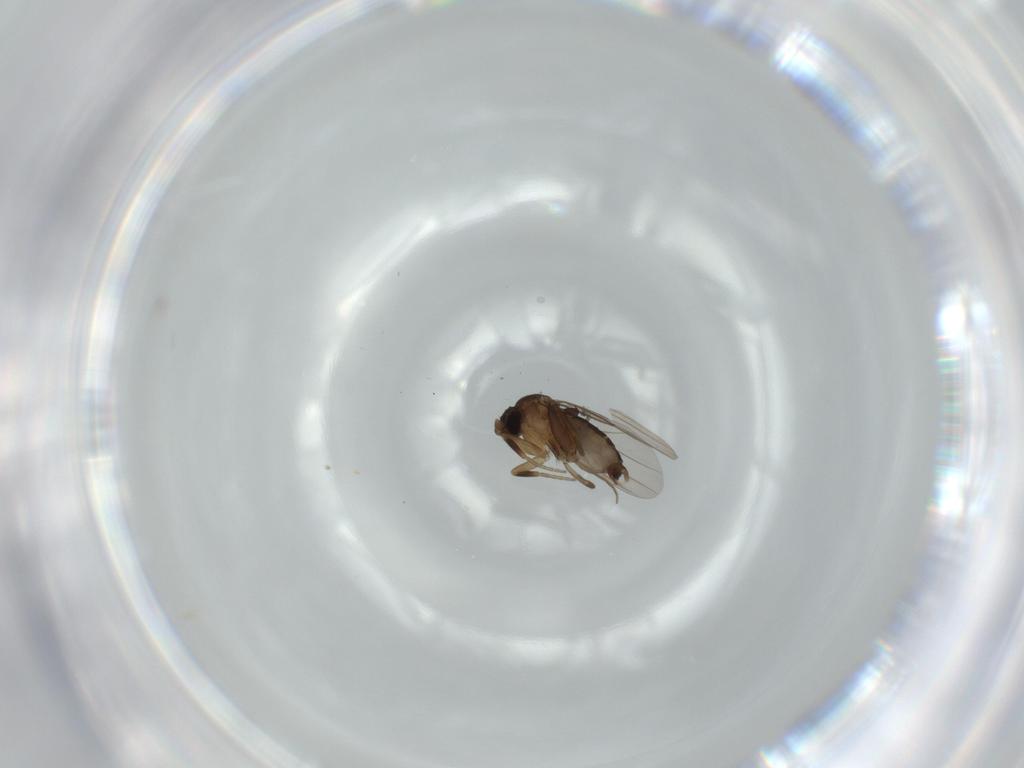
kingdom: Animalia
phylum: Arthropoda
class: Insecta
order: Diptera
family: Phoridae
